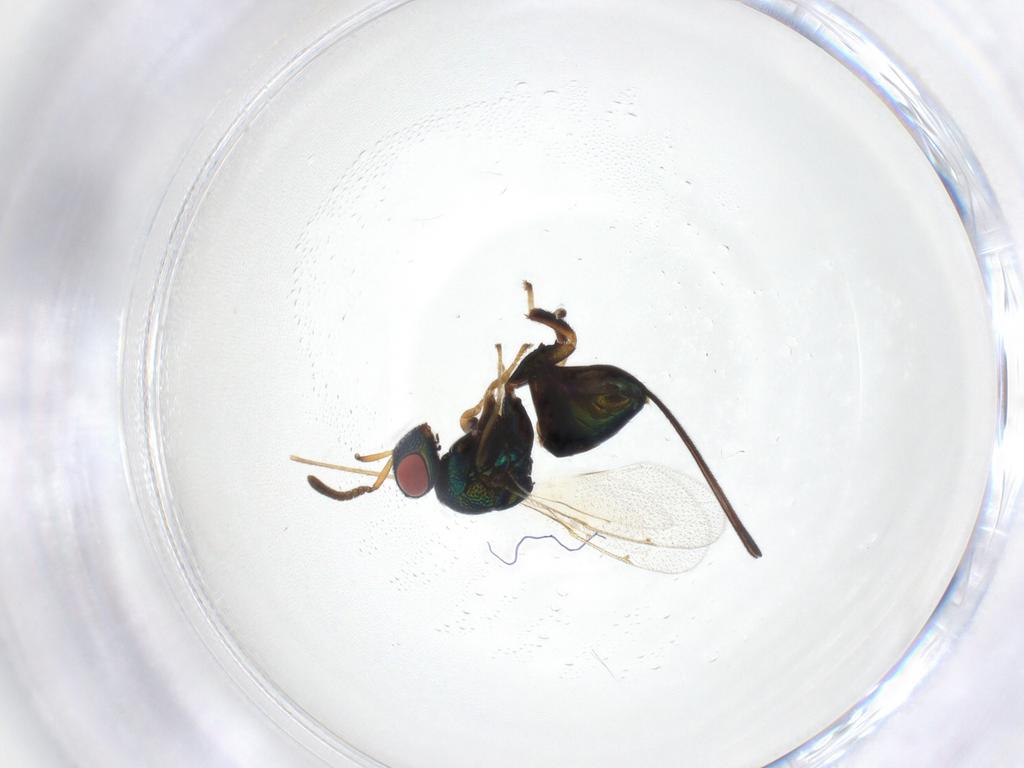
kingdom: Animalia
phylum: Arthropoda
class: Insecta
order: Hymenoptera
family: Torymidae
